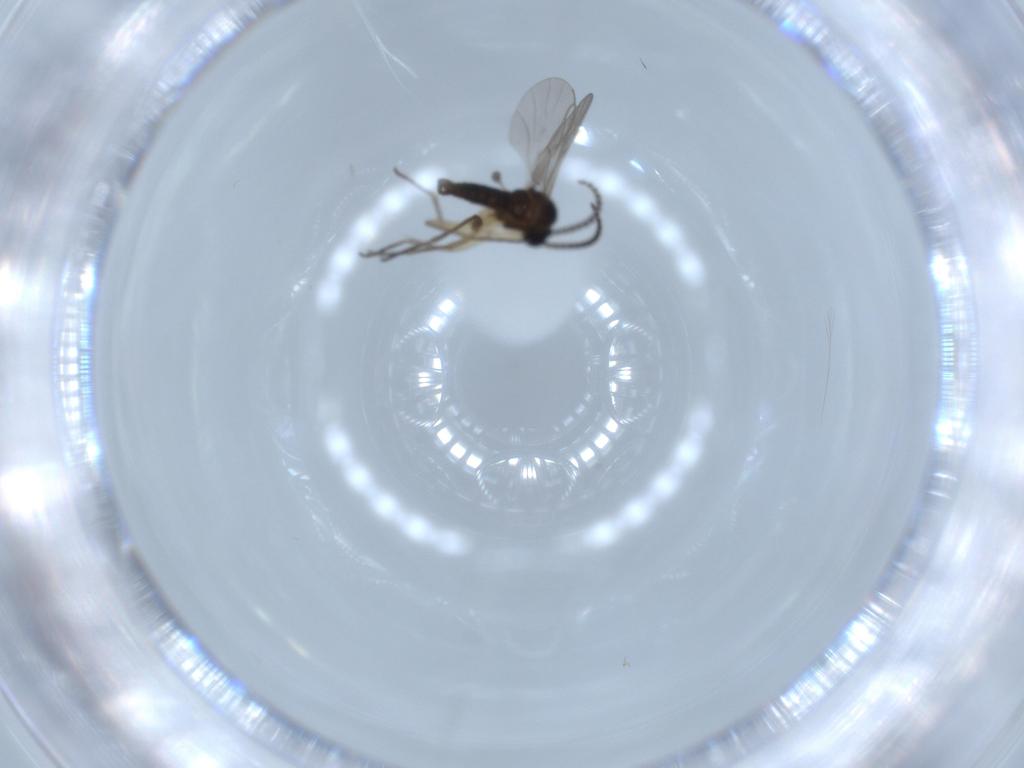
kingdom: Animalia
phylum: Arthropoda
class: Insecta
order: Diptera
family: Sciaridae
